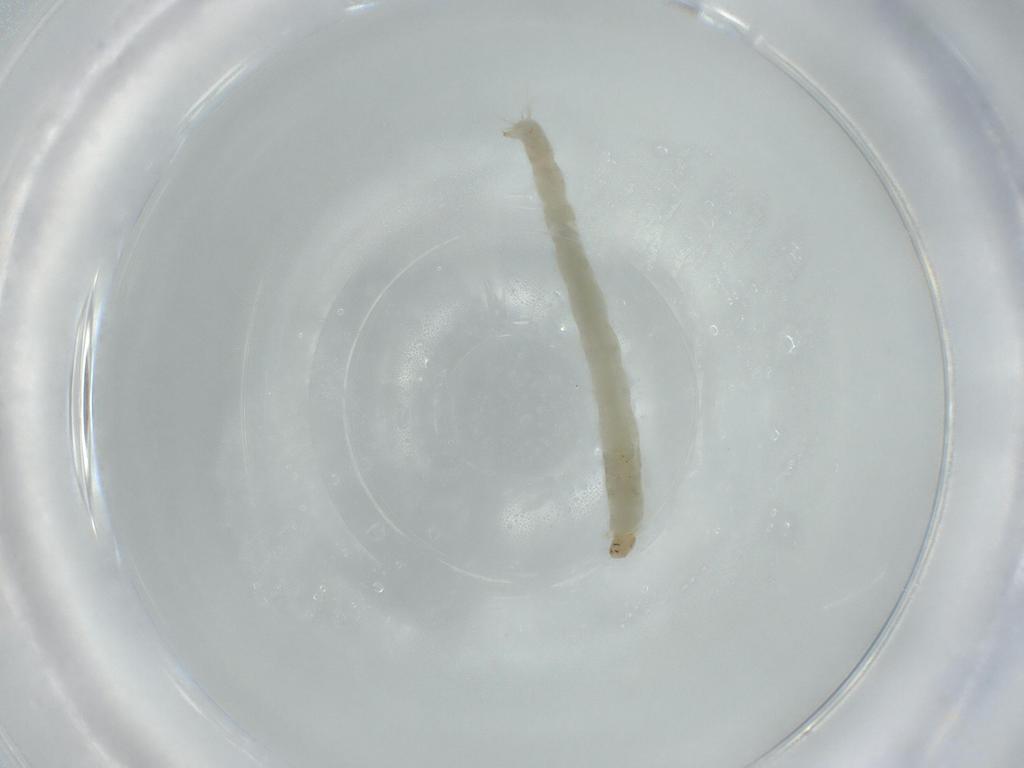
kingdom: Animalia
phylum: Arthropoda
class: Insecta
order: Diptera
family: Chironomidae
